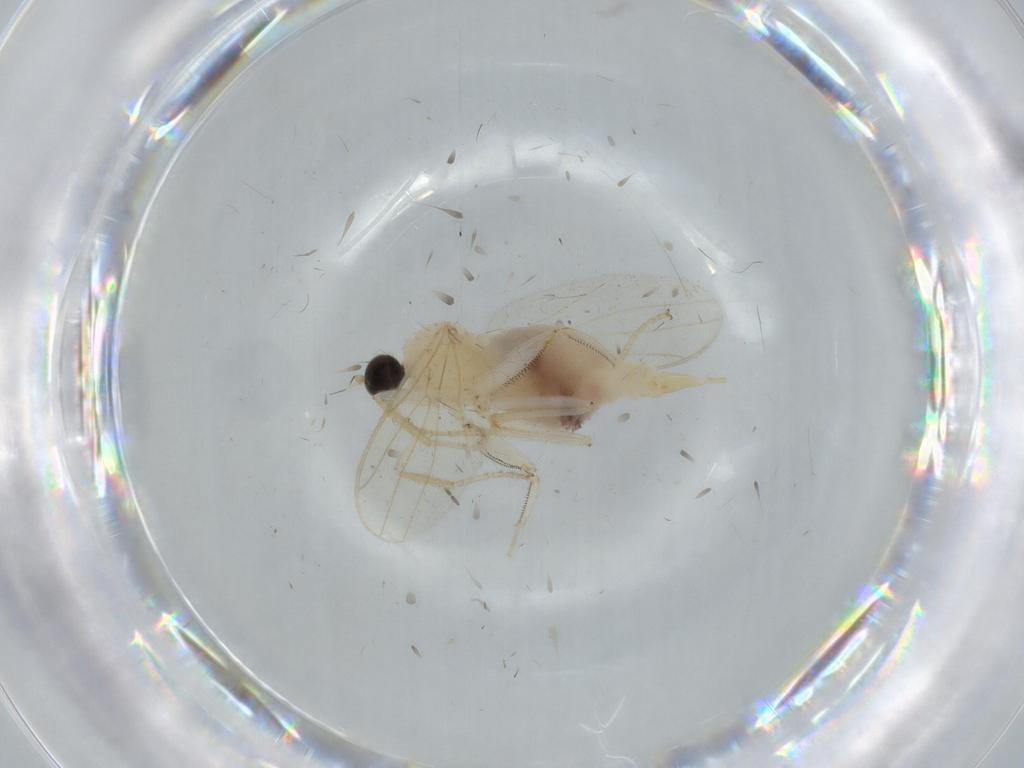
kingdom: Animalia
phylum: Arthropoda
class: Insecta
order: Diptera
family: Hybotidae
